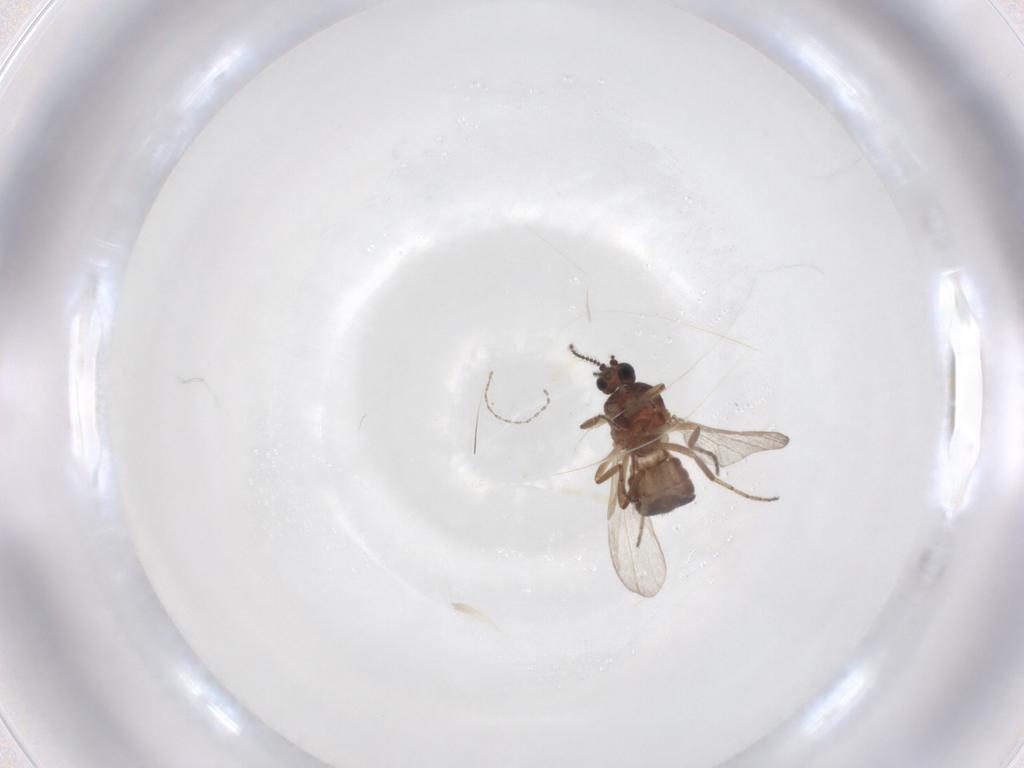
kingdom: Animalia
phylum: Arthropoda
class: Insecta
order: Diptera
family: Ceratopogonidae
